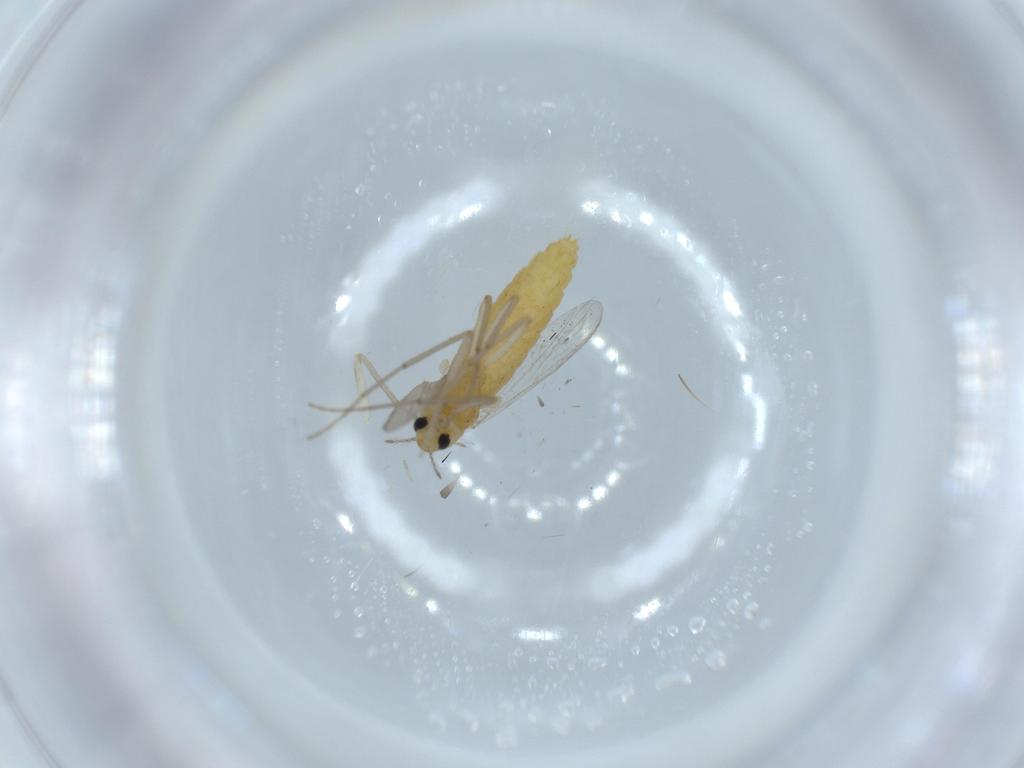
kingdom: Animalia
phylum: Arthropoda
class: Insecta
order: Diptera
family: Chironomidae
